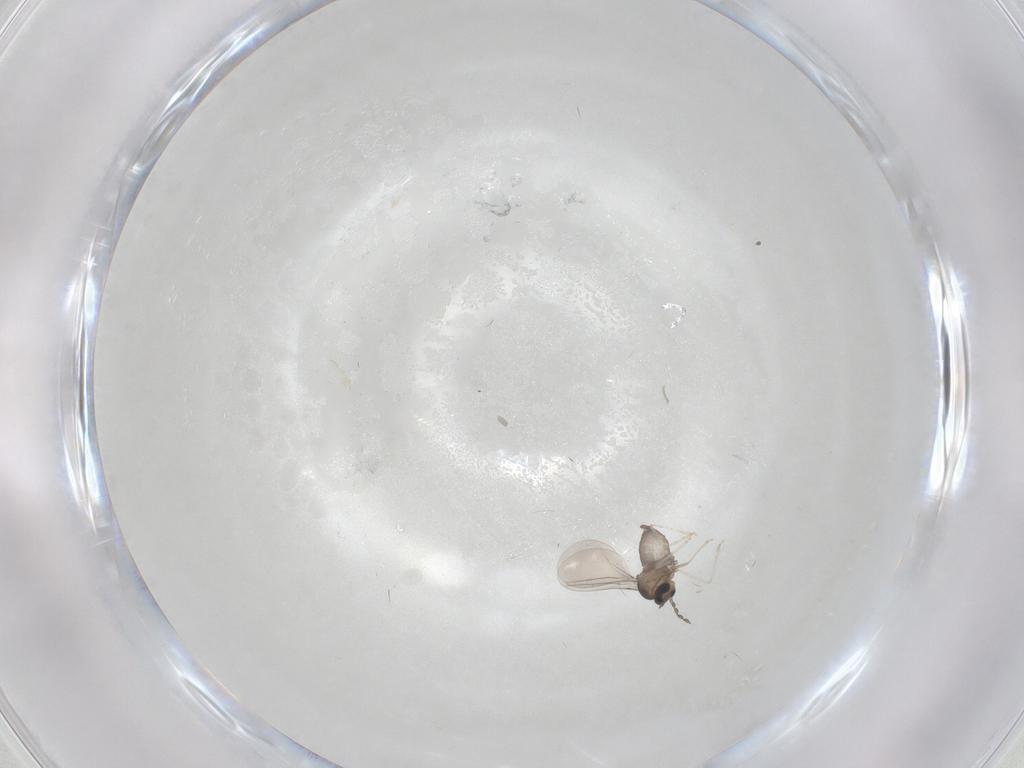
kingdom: Animalia
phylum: Arthropoda
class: Insecta
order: Diptera
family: Cecidomyiidae
